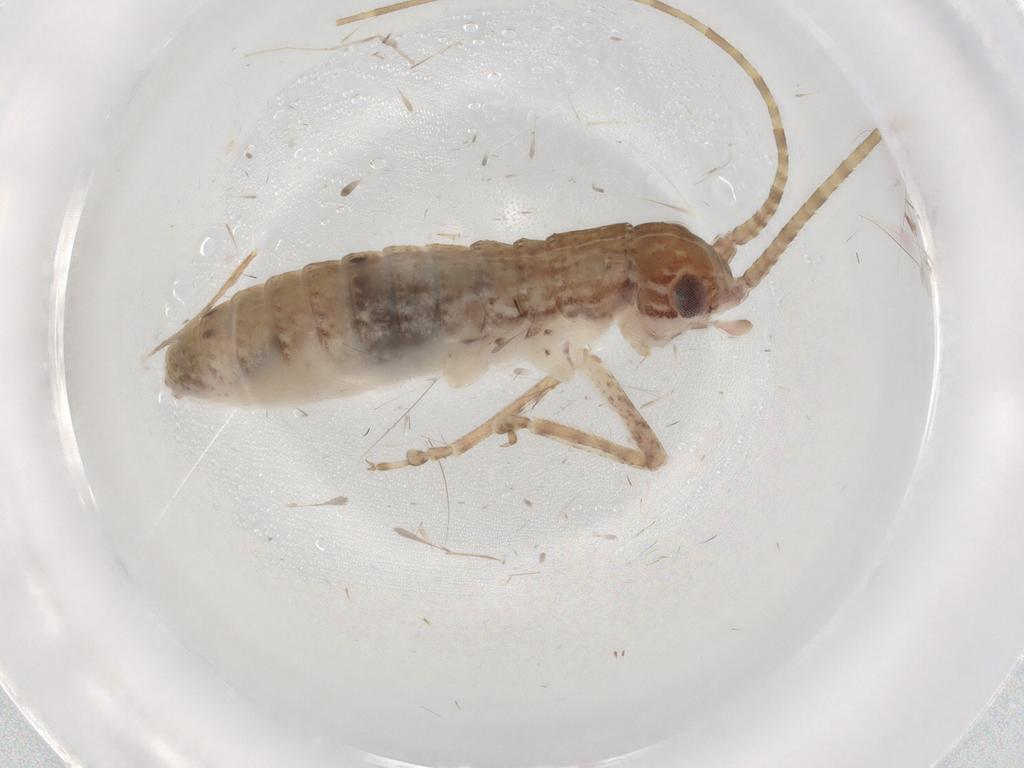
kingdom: Animalia
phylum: Arthropoda
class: Insecta
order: Orthoptera
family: Gryllidae
